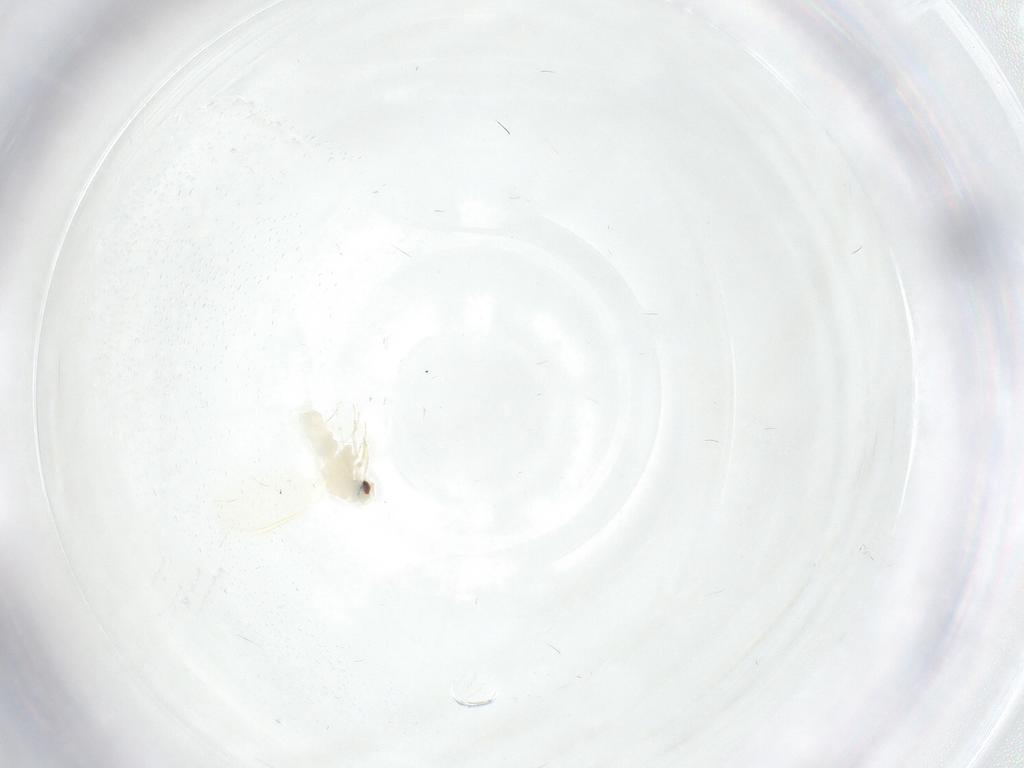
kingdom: Animalia
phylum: Arthropoda
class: Insecta
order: Hemiptera
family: Aleyrodidae
